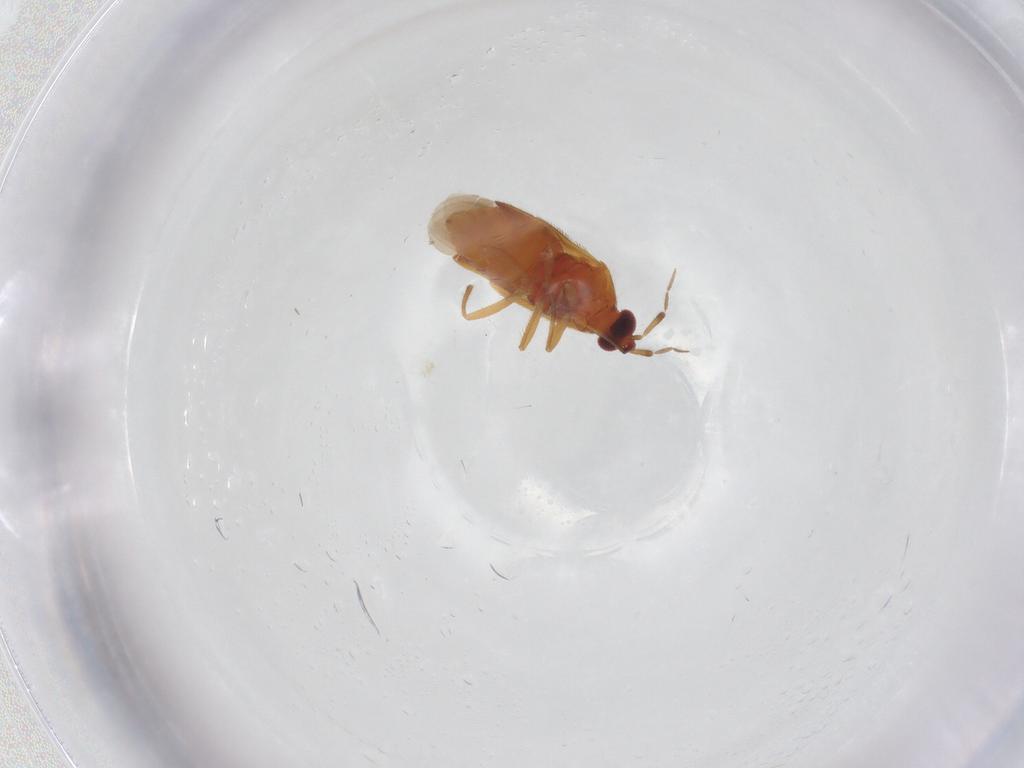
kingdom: Animalia
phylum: Arthropoda
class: Insecta
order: Hemiptera
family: Anthocoridae
